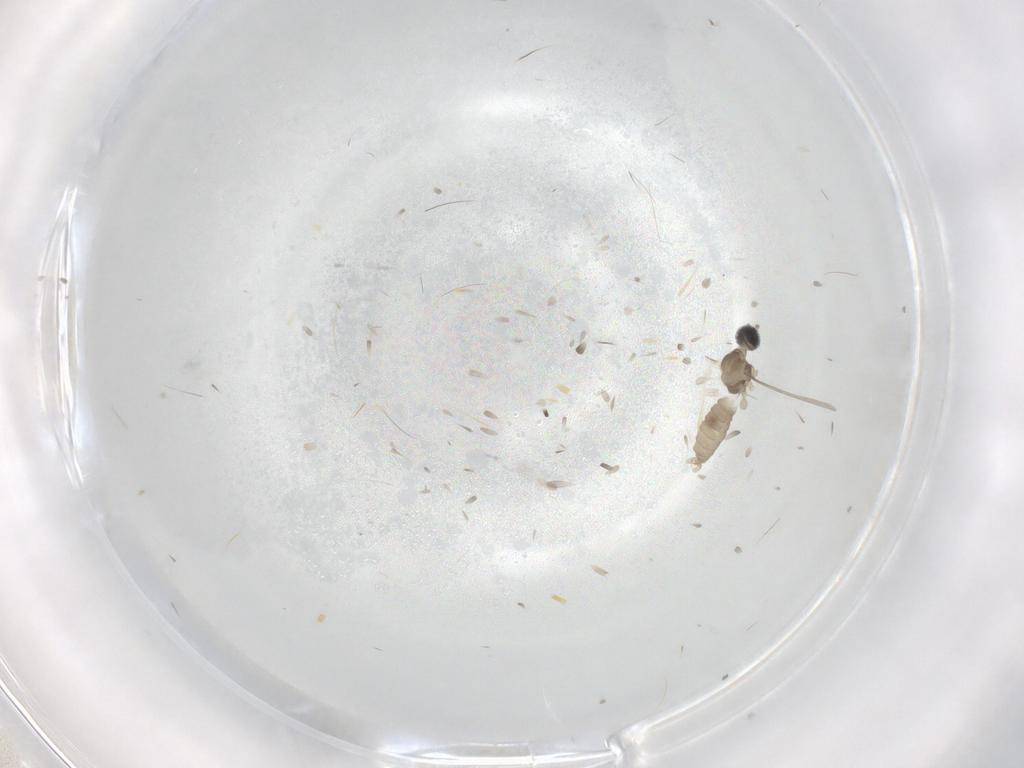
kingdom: Animalia
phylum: Arthropoda
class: Insecta
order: Diptera
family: Cecidomyiidae
